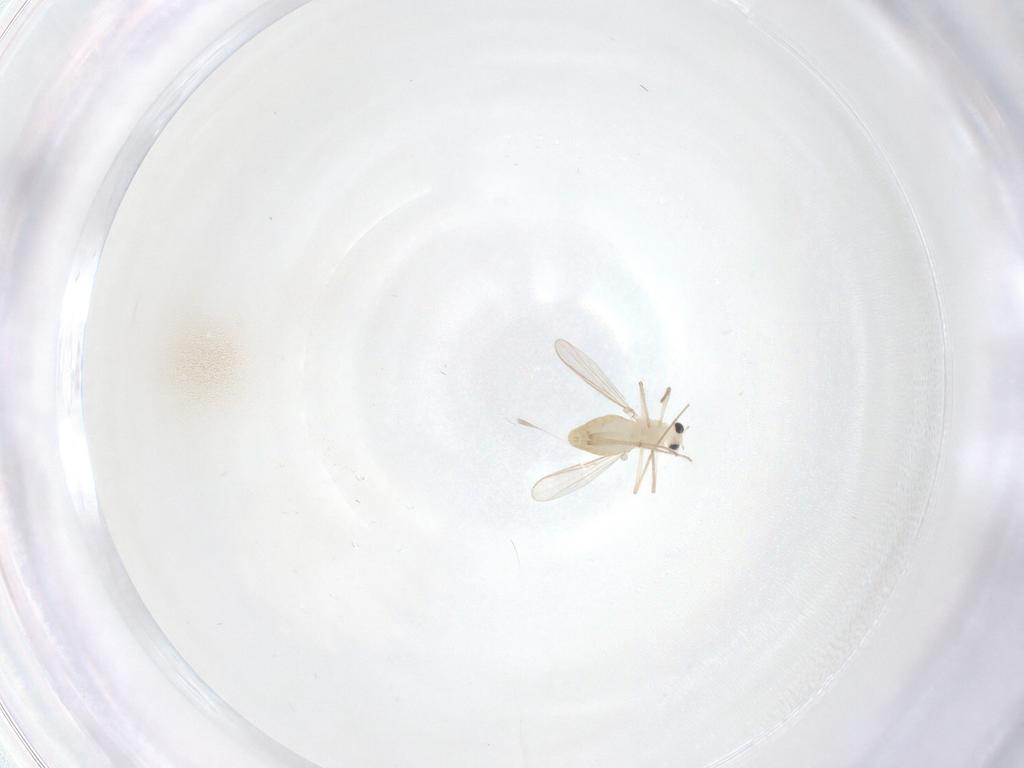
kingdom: Animalia
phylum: Arthropoda
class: Insecta
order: Diptera
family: Chironomidae
